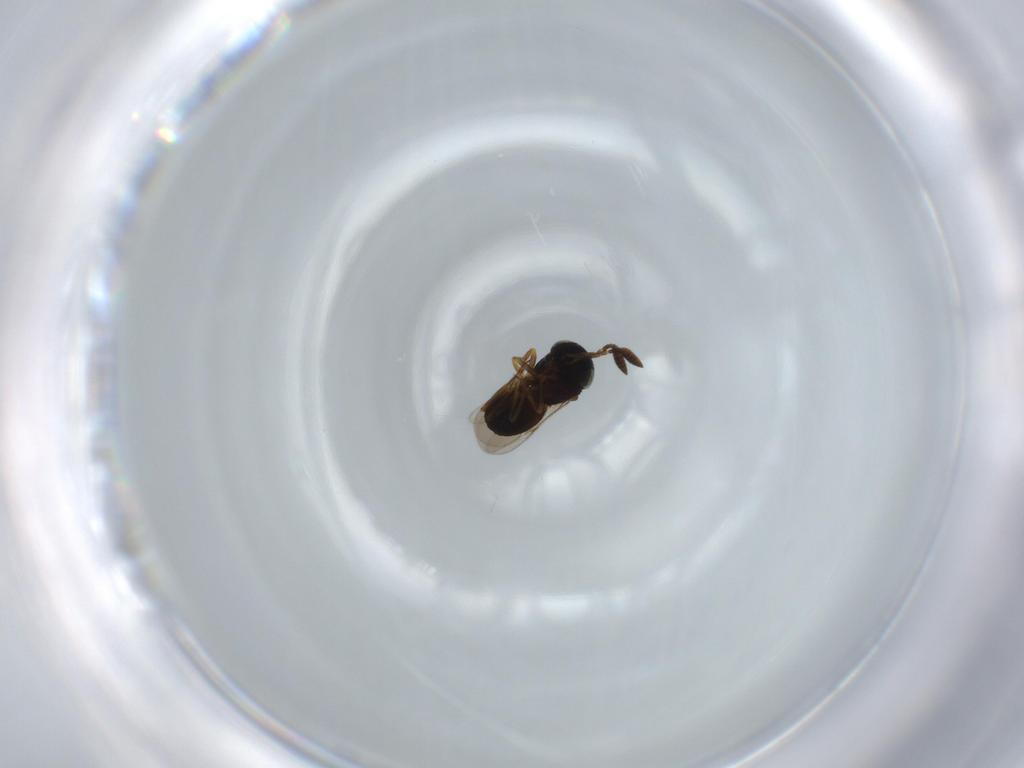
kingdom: Animalia
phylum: Arthropoda
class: Insecta
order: Hymenoptera
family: Scelionidae
